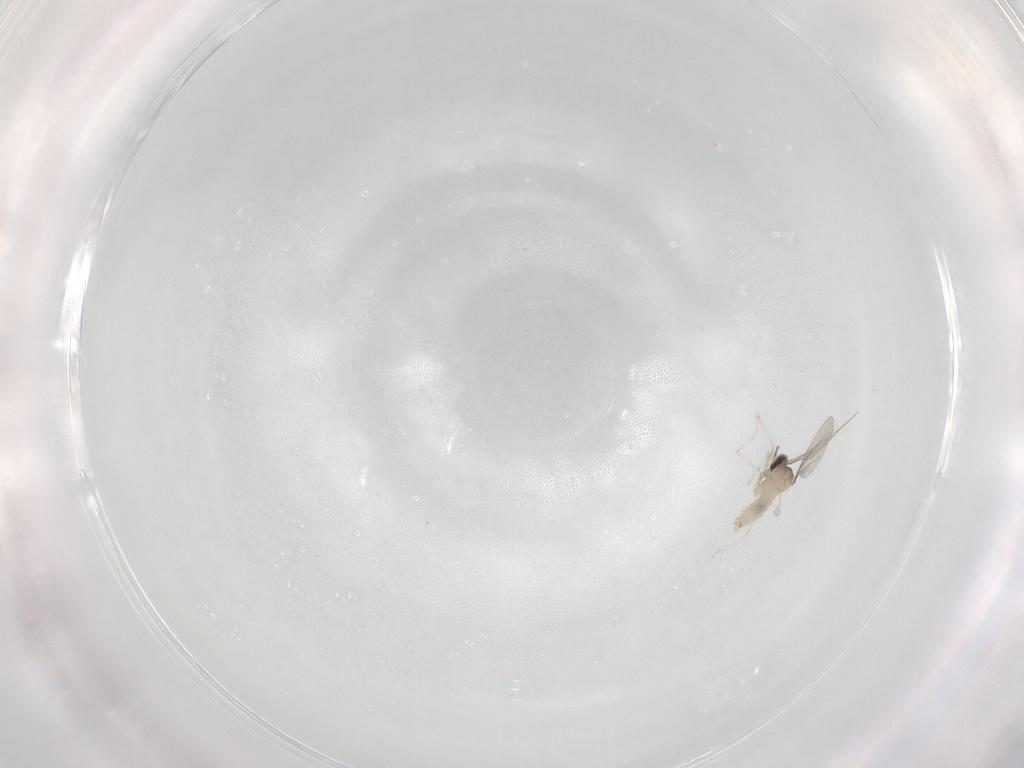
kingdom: Animalia
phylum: Arthropoda
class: Insecta
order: Diptera
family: Cecidomyiidae
